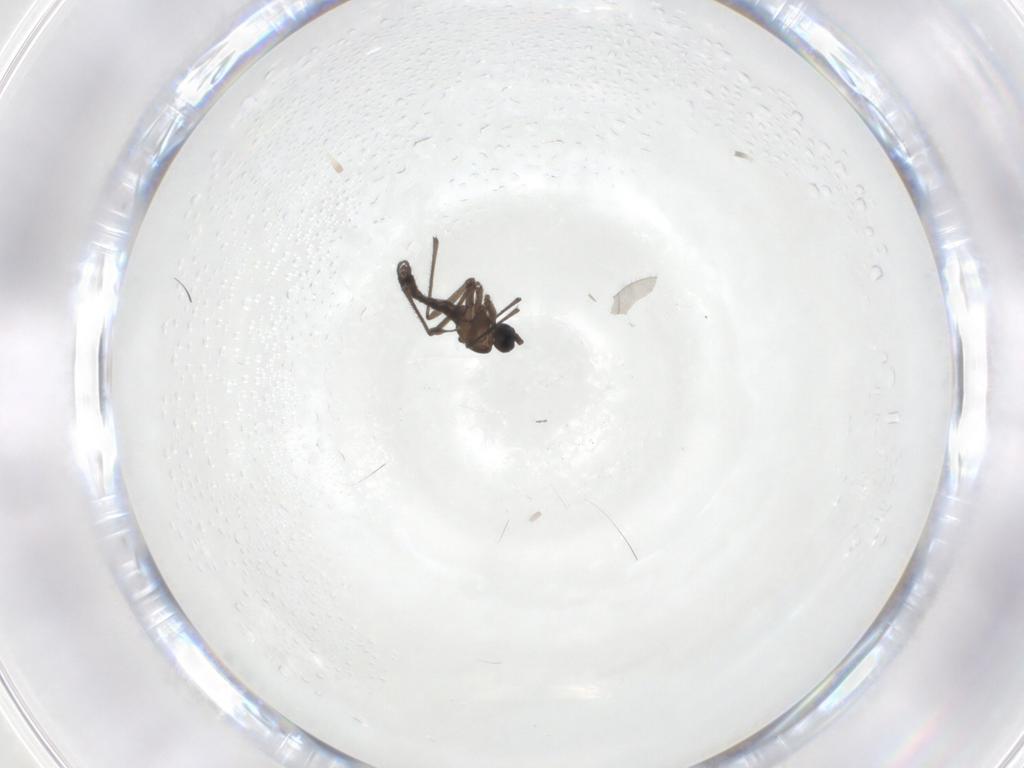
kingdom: Animalia
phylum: Arthropoda
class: Insecta
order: Diptera
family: Sciaridae
